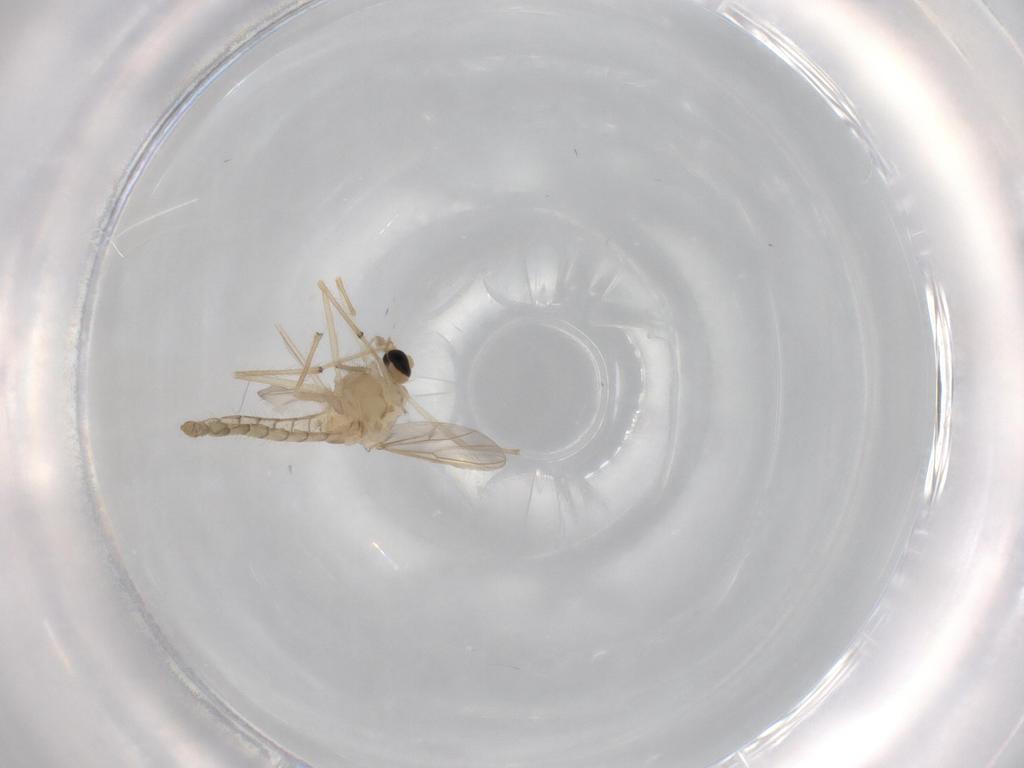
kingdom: Animalia
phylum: Arthropoda
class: Insecta
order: Diptera
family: Chironomidae
